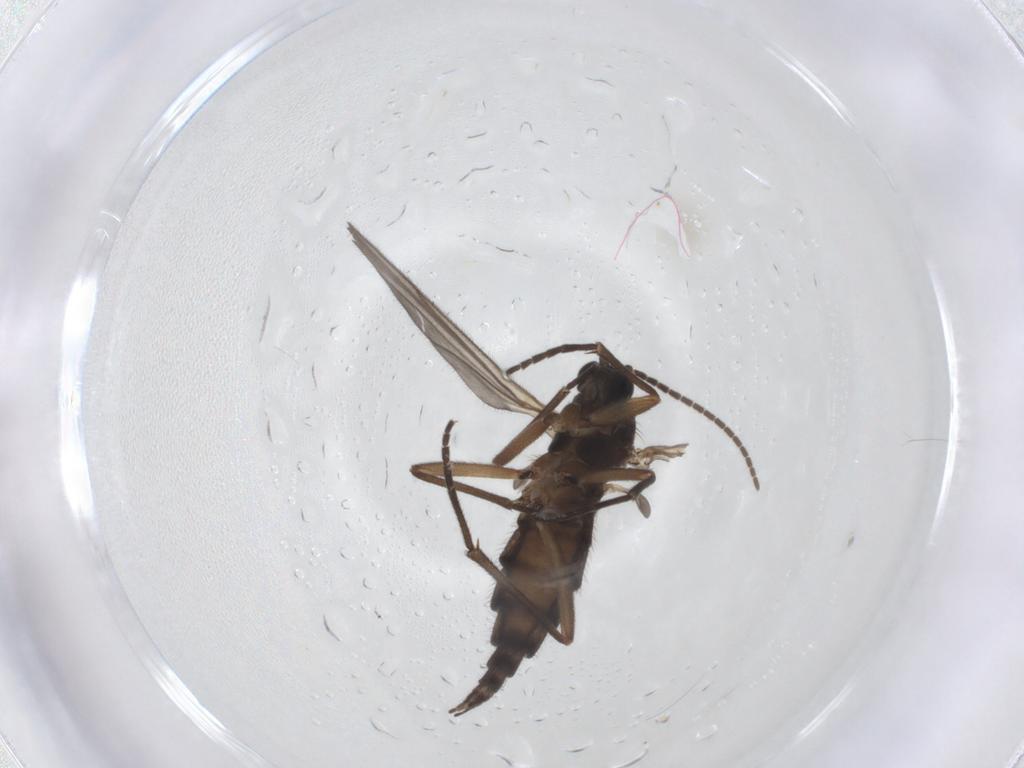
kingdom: Animalia
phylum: Arthropoda
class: Insecta
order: Diptera
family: Sciaridae
